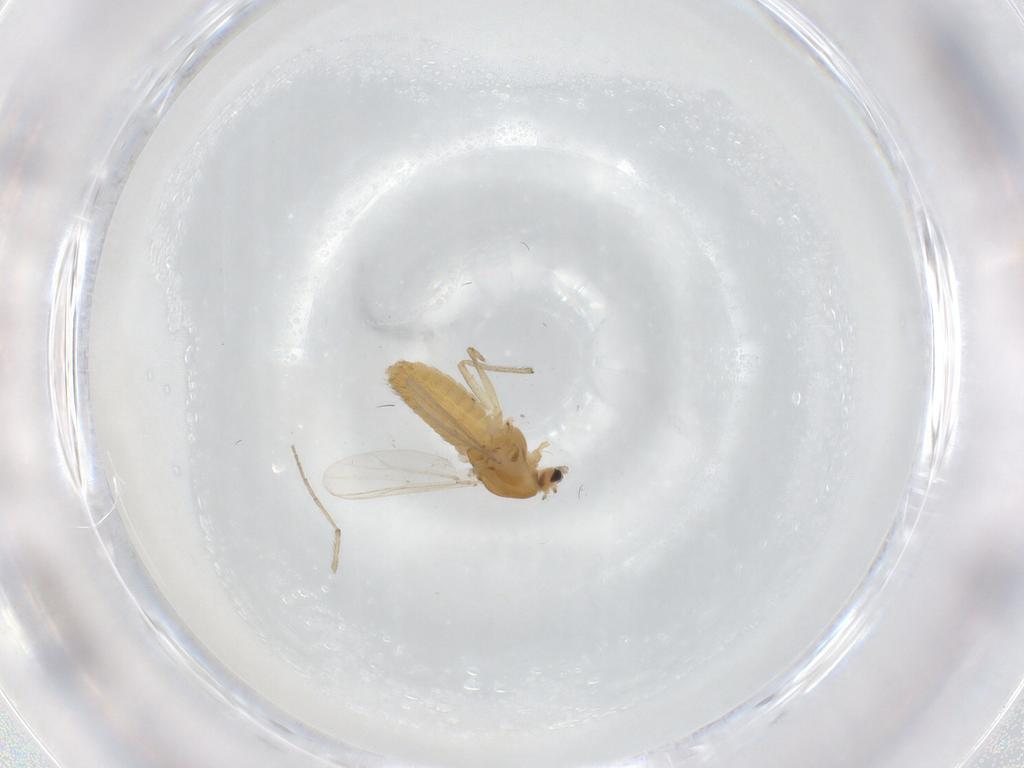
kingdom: Animalia
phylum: Arthropoda
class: Insecta
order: Diptera
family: Chironomidae
